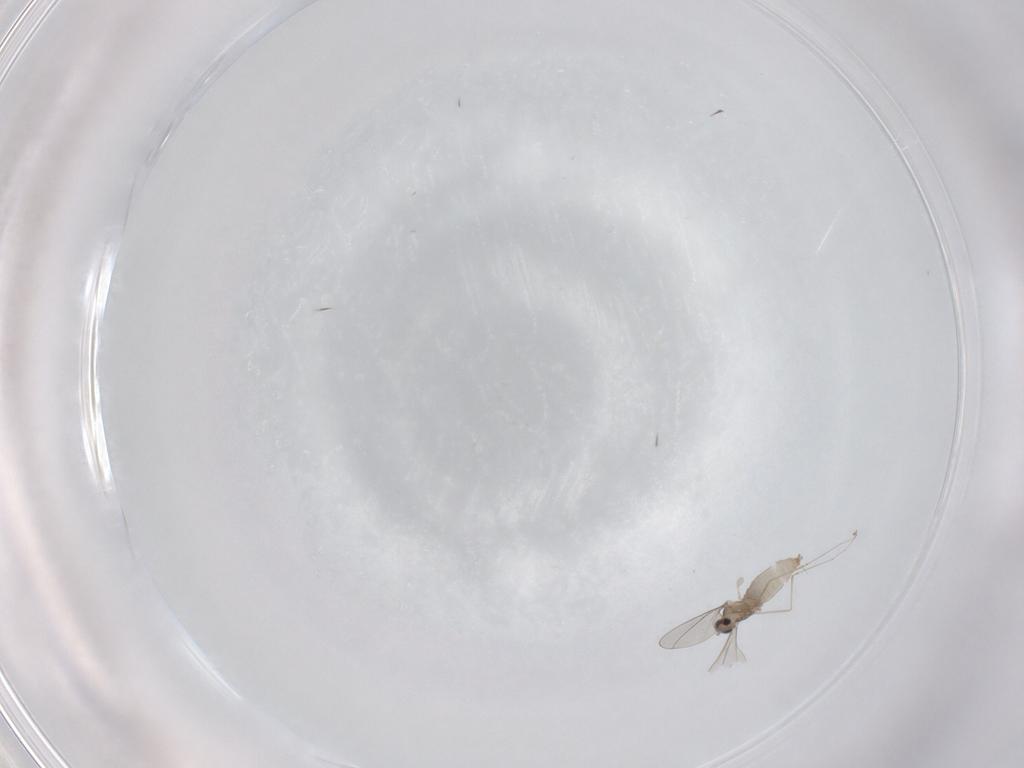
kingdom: Animalia
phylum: Arthropoda
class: Insecta
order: Diptera
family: Cecidomyiidae
